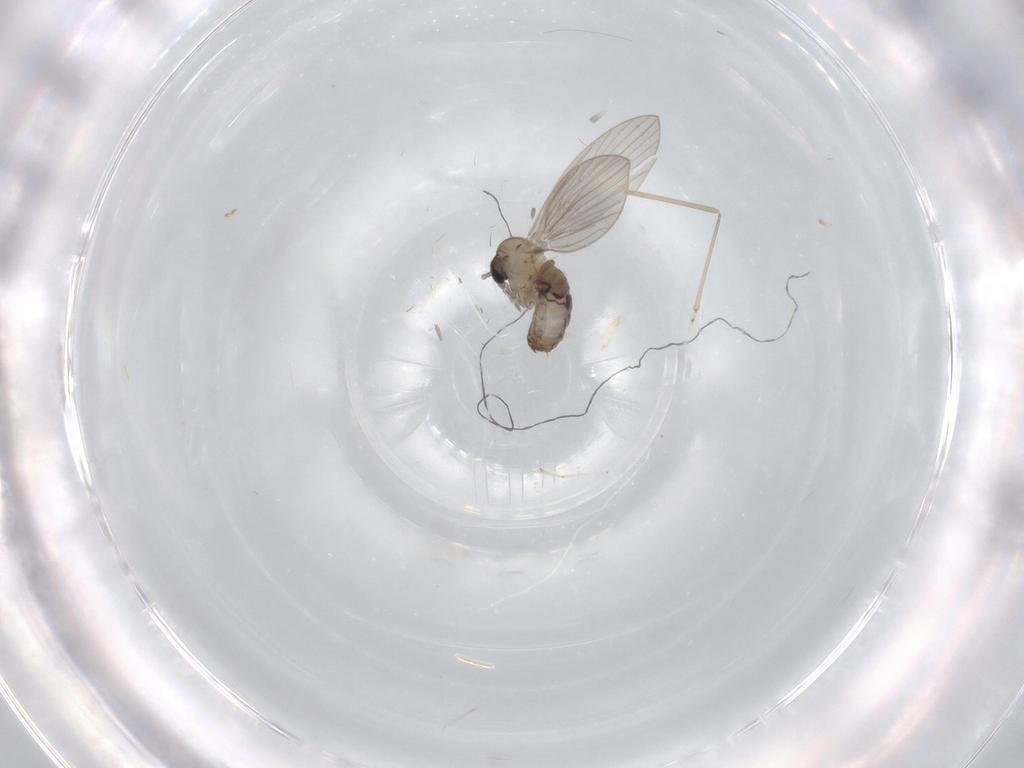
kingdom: Animalia
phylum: Arthropoda
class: Insecta
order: Diptera
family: Psychodidae
